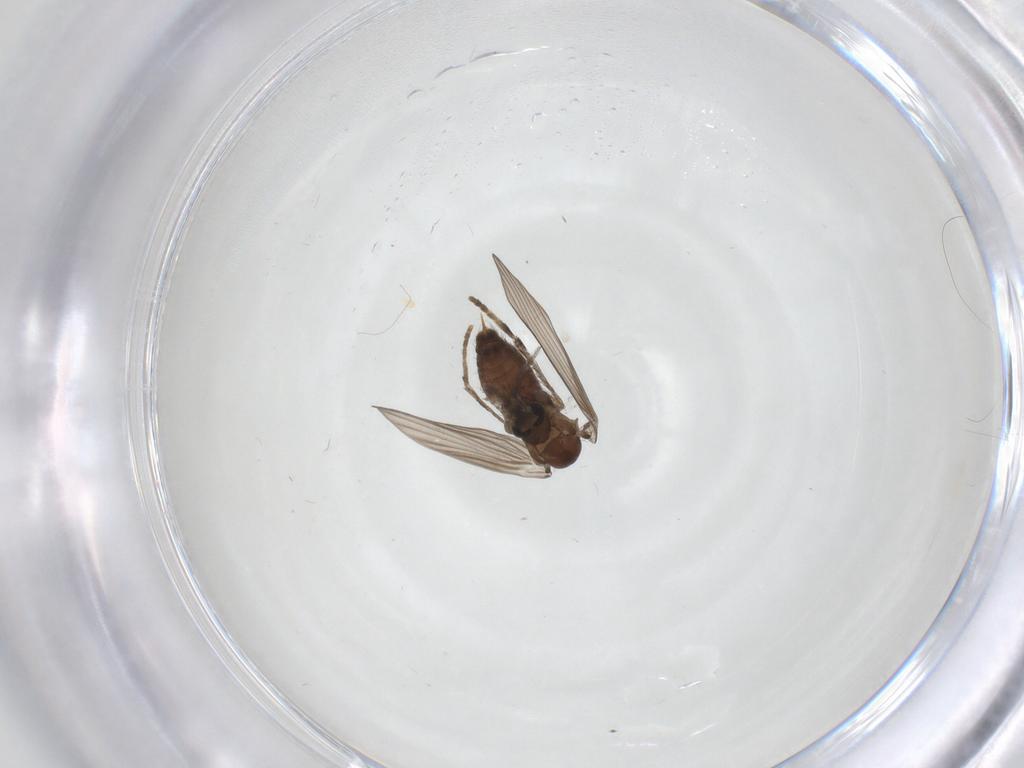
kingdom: Animalia
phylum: Arthropoda
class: Insecta
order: Diptera
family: Psychodidae
